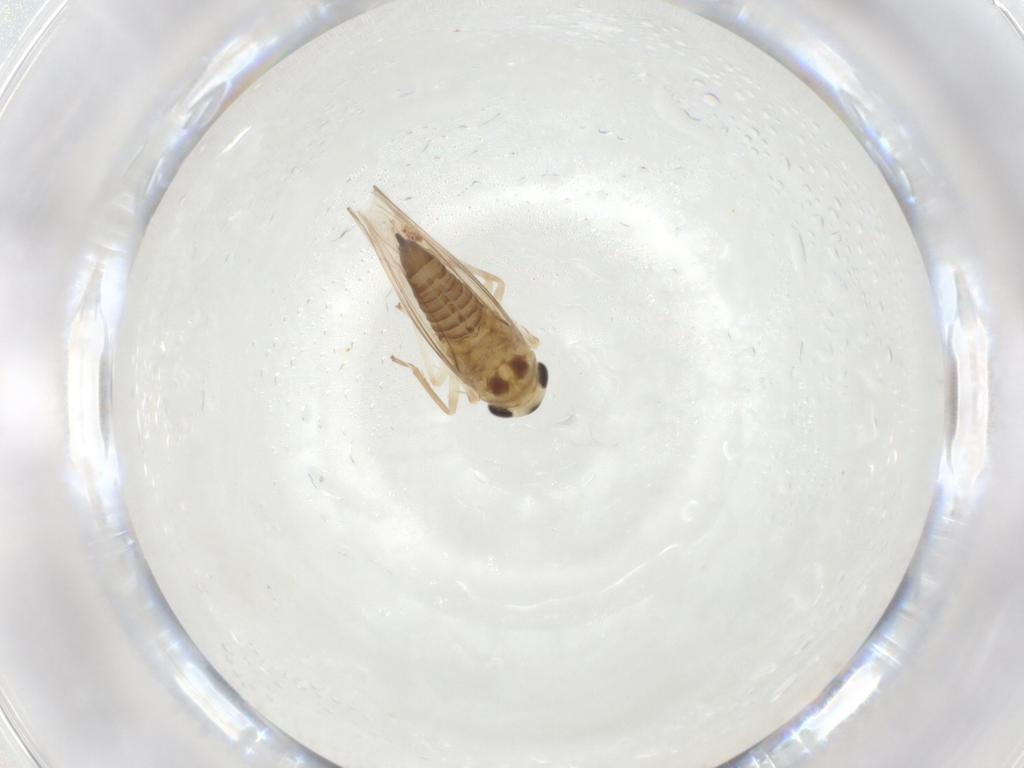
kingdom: Animalia
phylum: Arthropoda
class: Insecta
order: Hemiptera
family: Cicadellidae
